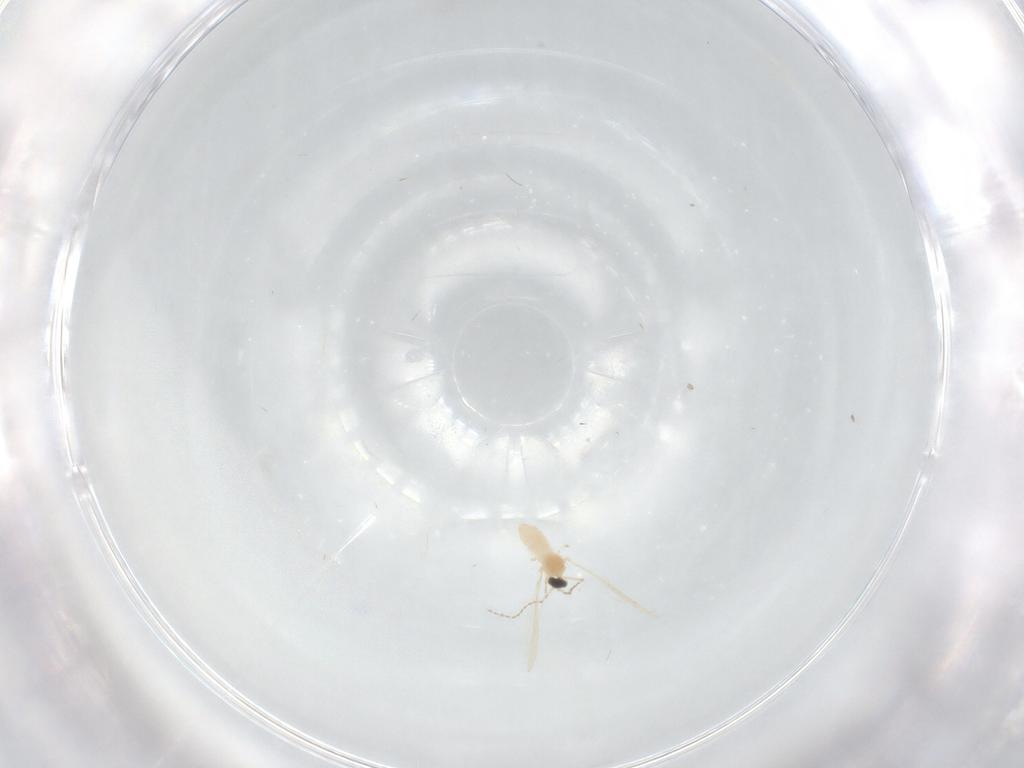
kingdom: Animalia
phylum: Arthropoda
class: Insecta
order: Diptera
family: Cecidomyiidae
